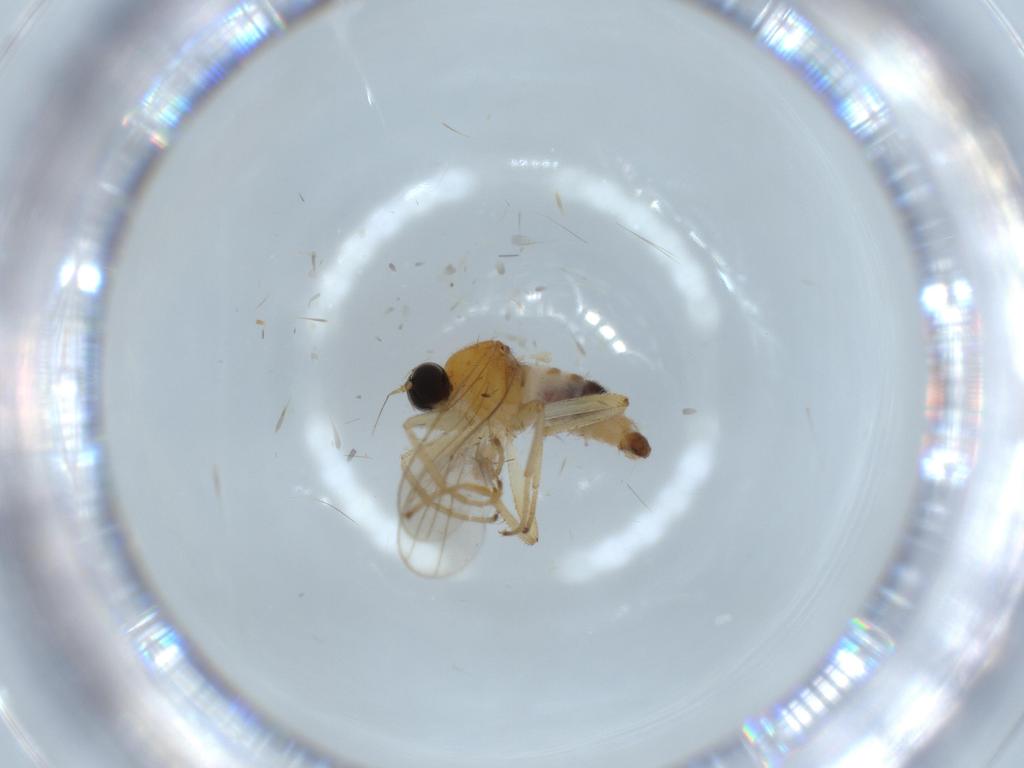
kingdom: Animalia
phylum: Arthropoda
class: Insecta
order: Diptera
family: Hybotidae
